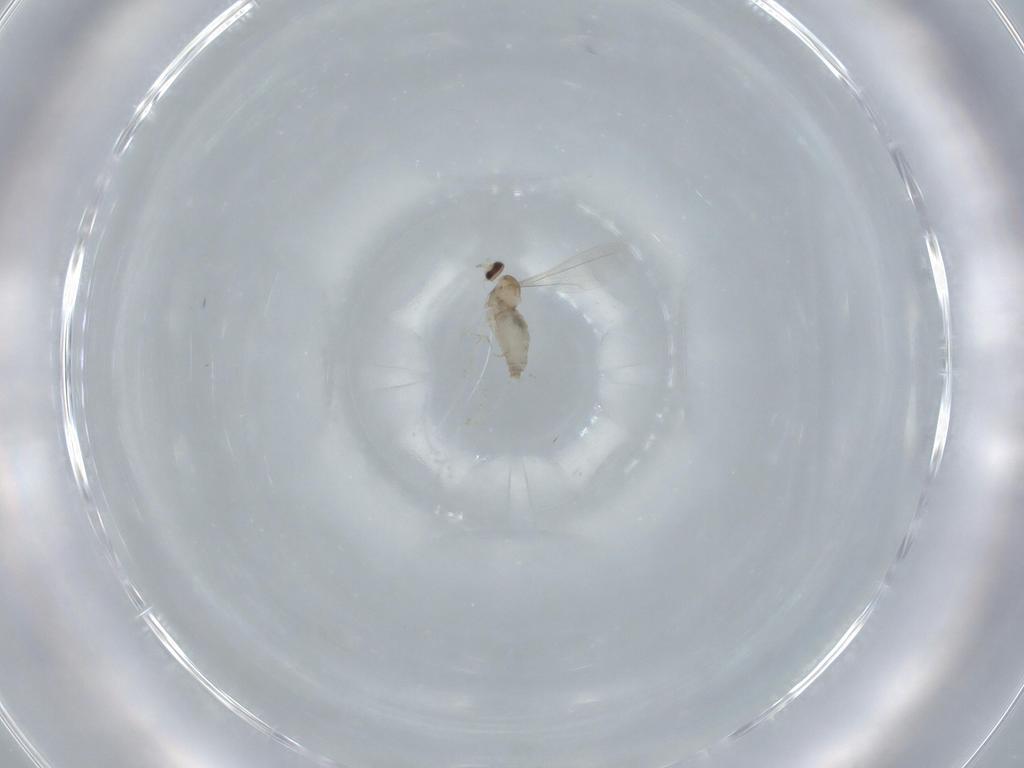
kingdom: Animalia
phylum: Arthropoda
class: Insecta
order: Diptera
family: Cecidomyiidae
